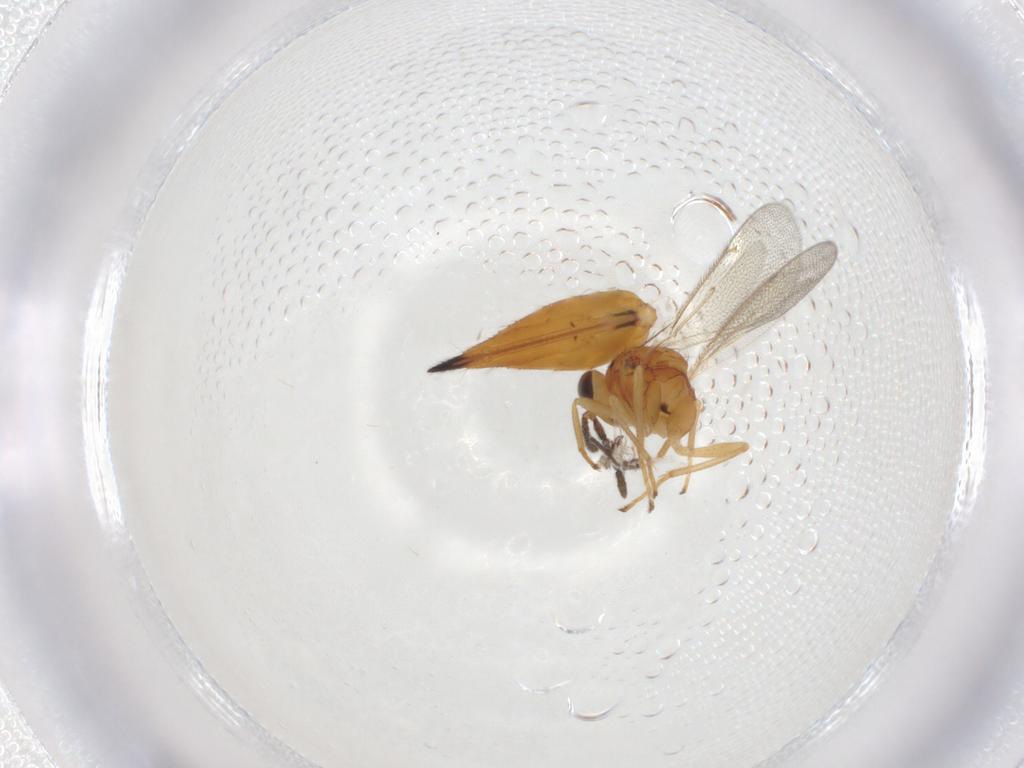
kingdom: Animalia
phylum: Arthropoda
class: Insecta
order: Hymenoptera
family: Eulophidae
